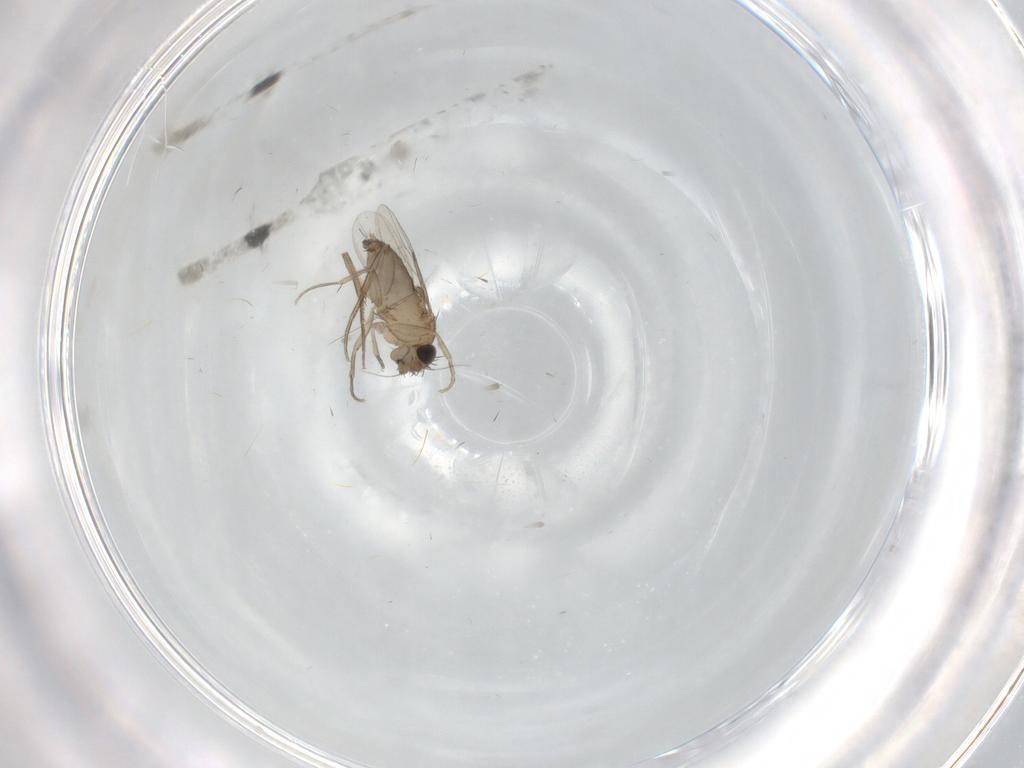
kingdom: Animalia
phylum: Arthropoda
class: Insecta
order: Diptera
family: Phoridae
